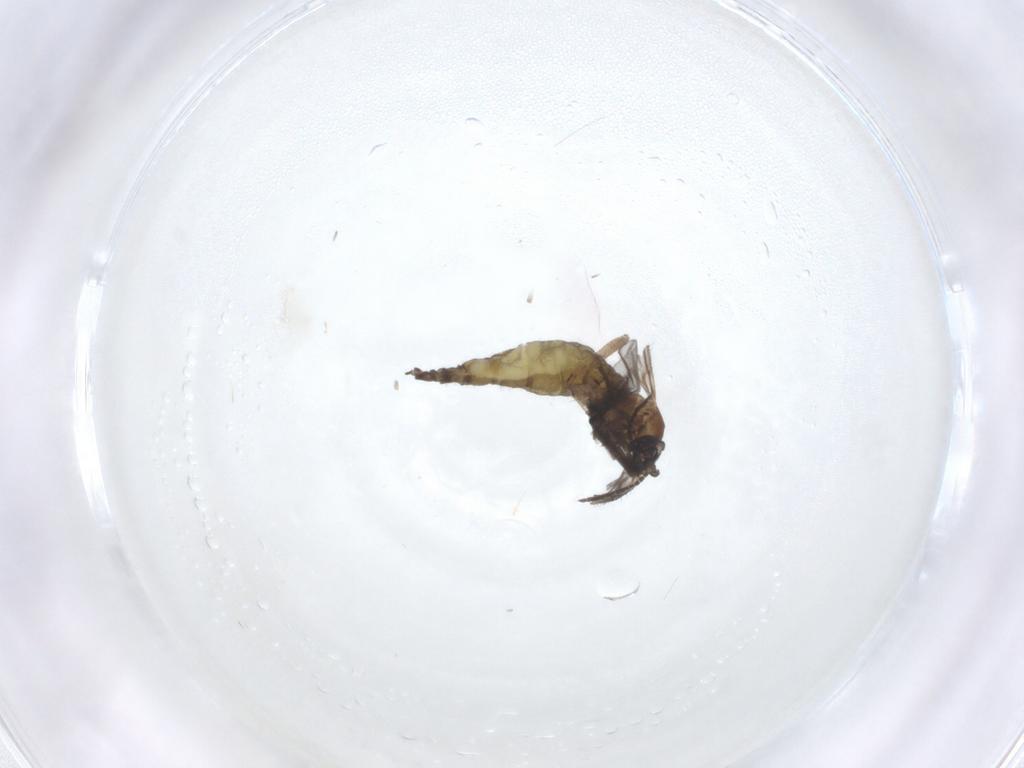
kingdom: Animalia
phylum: Arthropoda
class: Insecta
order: Diptera
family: Sciaridae
